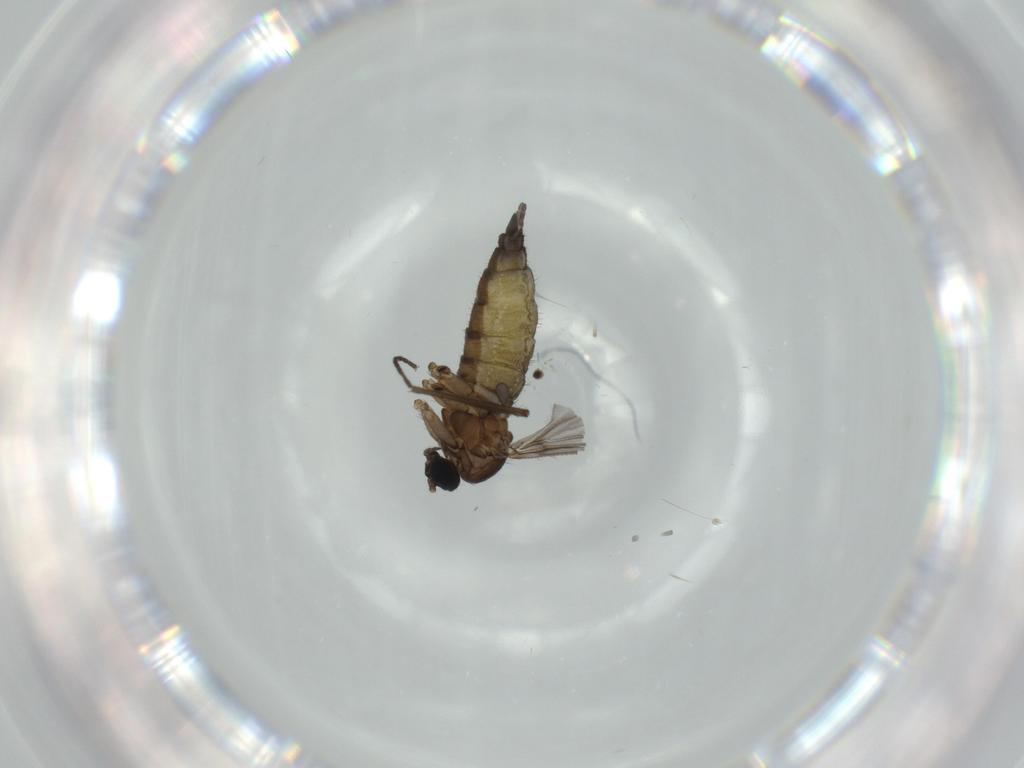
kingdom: Animalia
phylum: Arthropoda
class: Insecta
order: Diptera
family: Sciaridae
